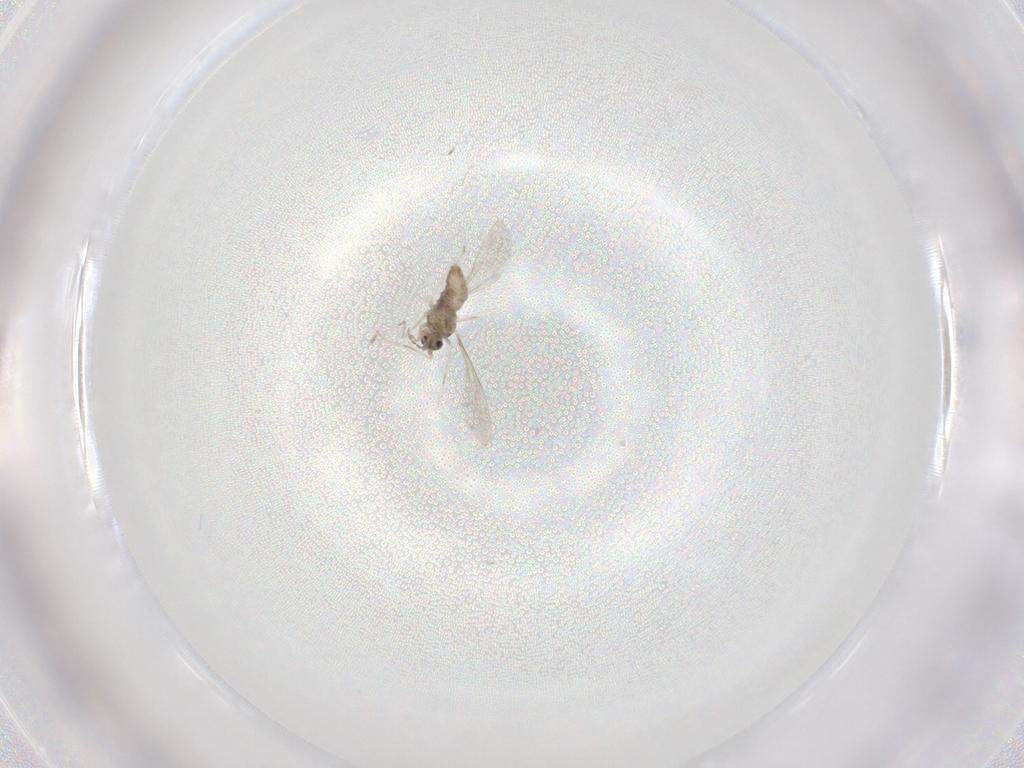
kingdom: Animalia
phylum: Arthropoda
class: Insecta
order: Diptera
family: Cecidomyiidae
